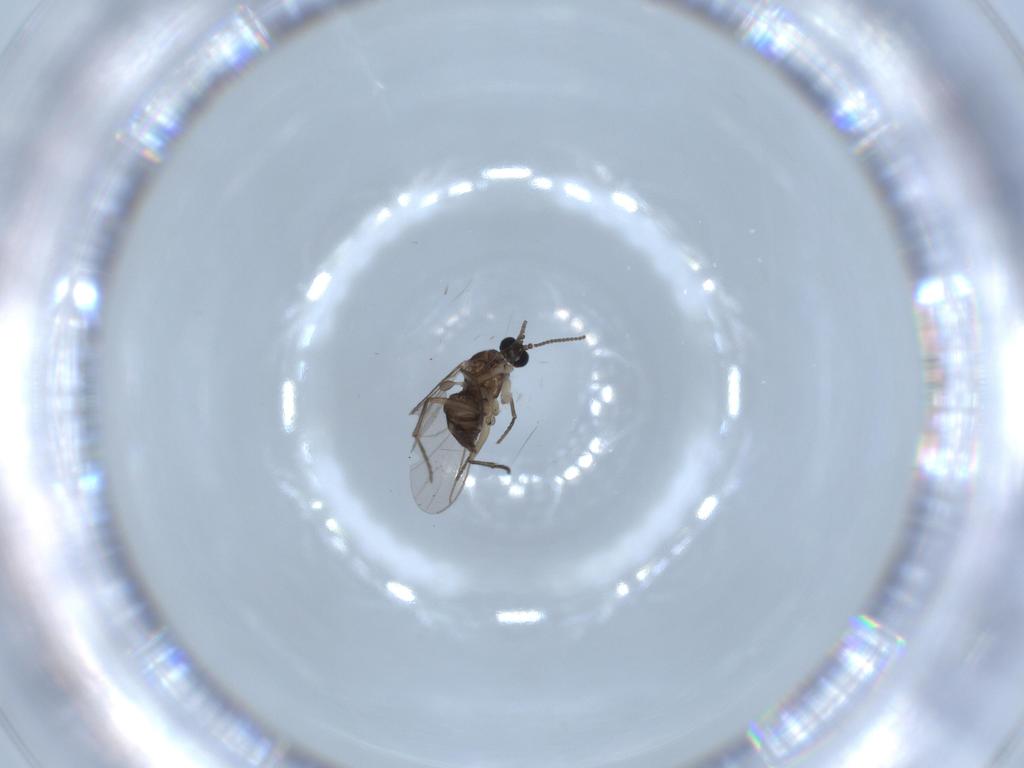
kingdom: Animalia
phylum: Arthropoda
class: Insecta
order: Diptera
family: Sciaridae
